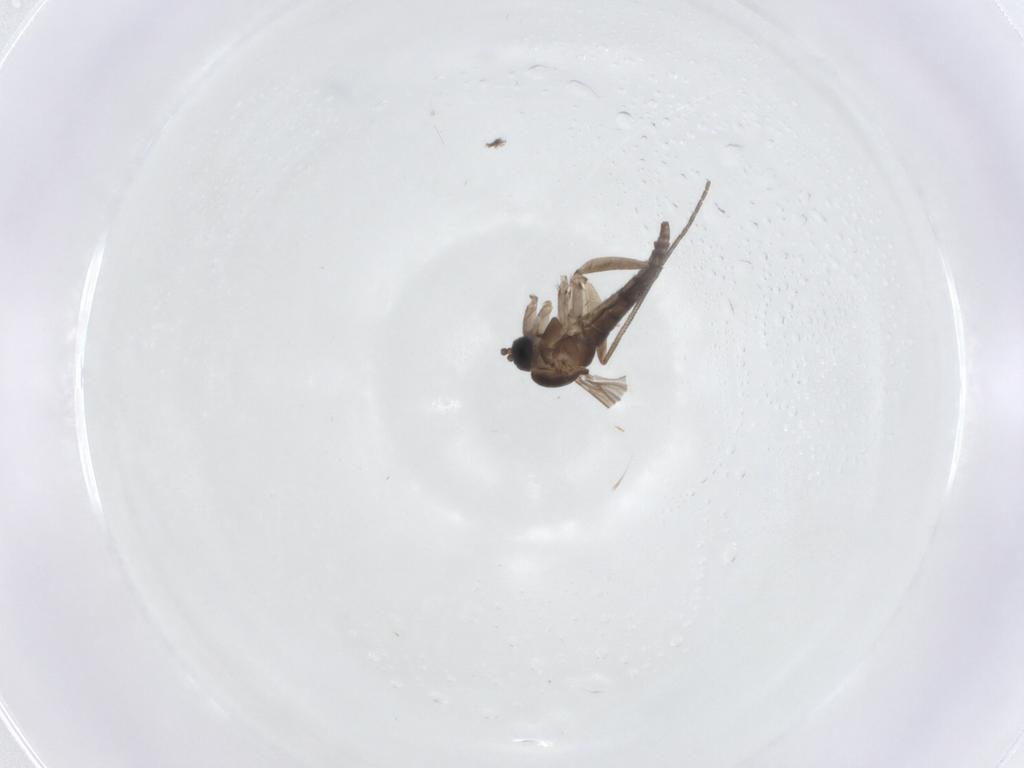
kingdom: Animalia
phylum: Arthropoda
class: Insecta
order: Diptera
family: Mycetophilidae
